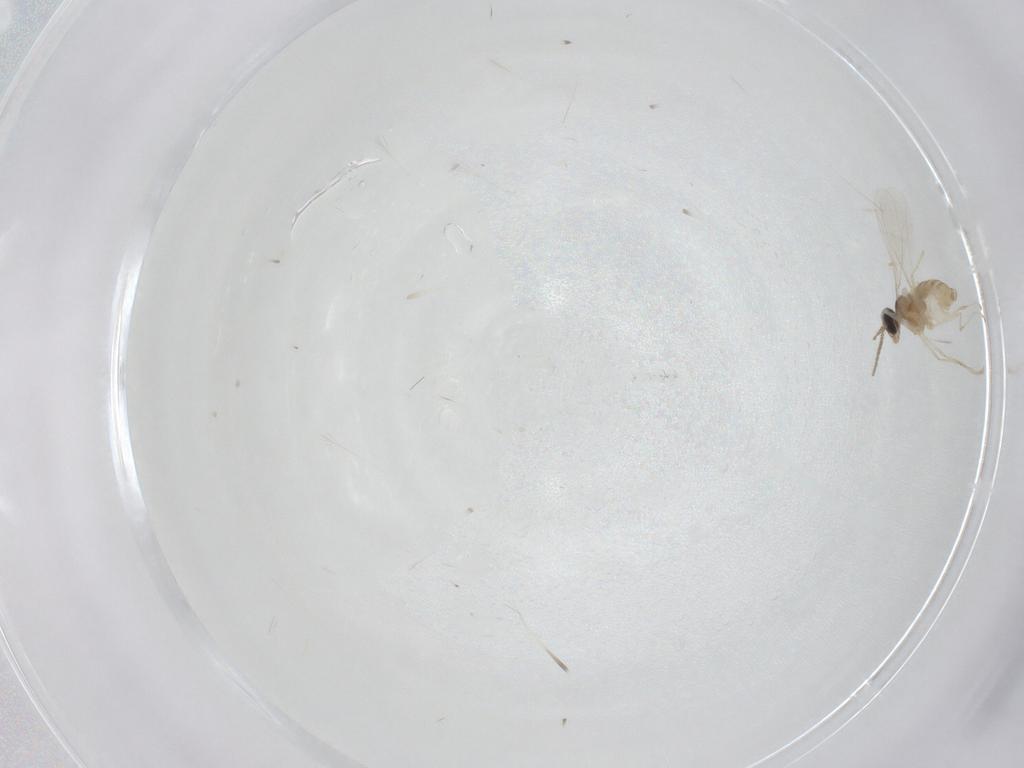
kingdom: Animalia
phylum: Arthropoda
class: Insecta
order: Diptera
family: Cecidomyiidae
